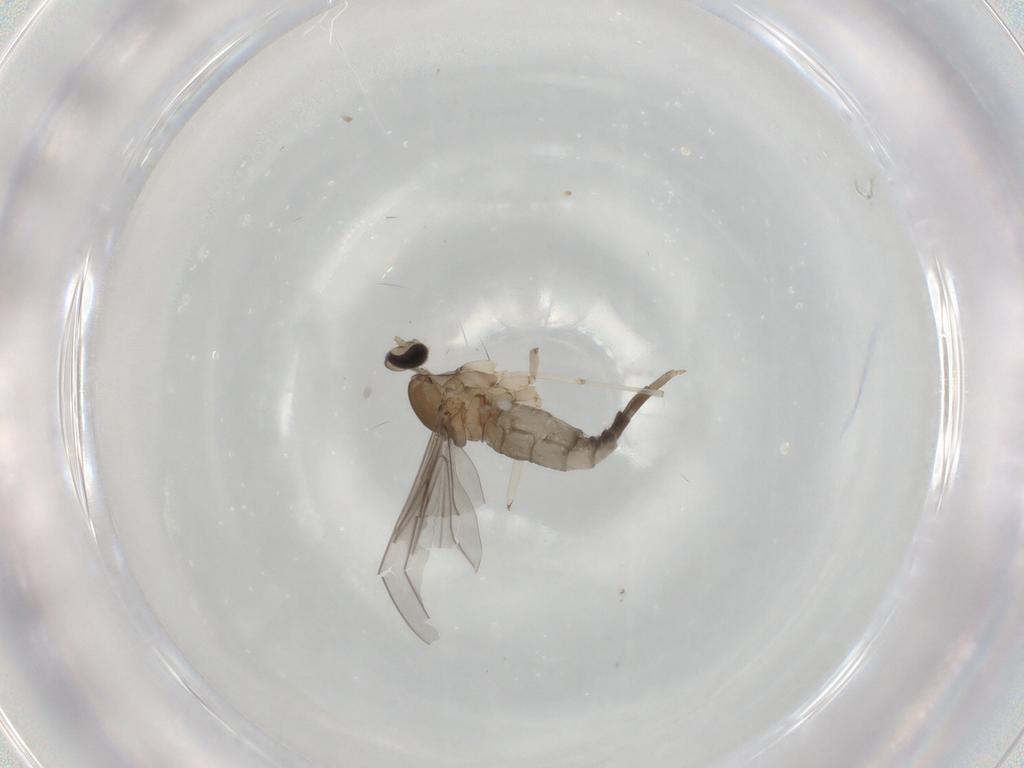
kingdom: Animalia
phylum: Arthropoda
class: Insecta
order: Diptera
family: Cecidomyiidae
